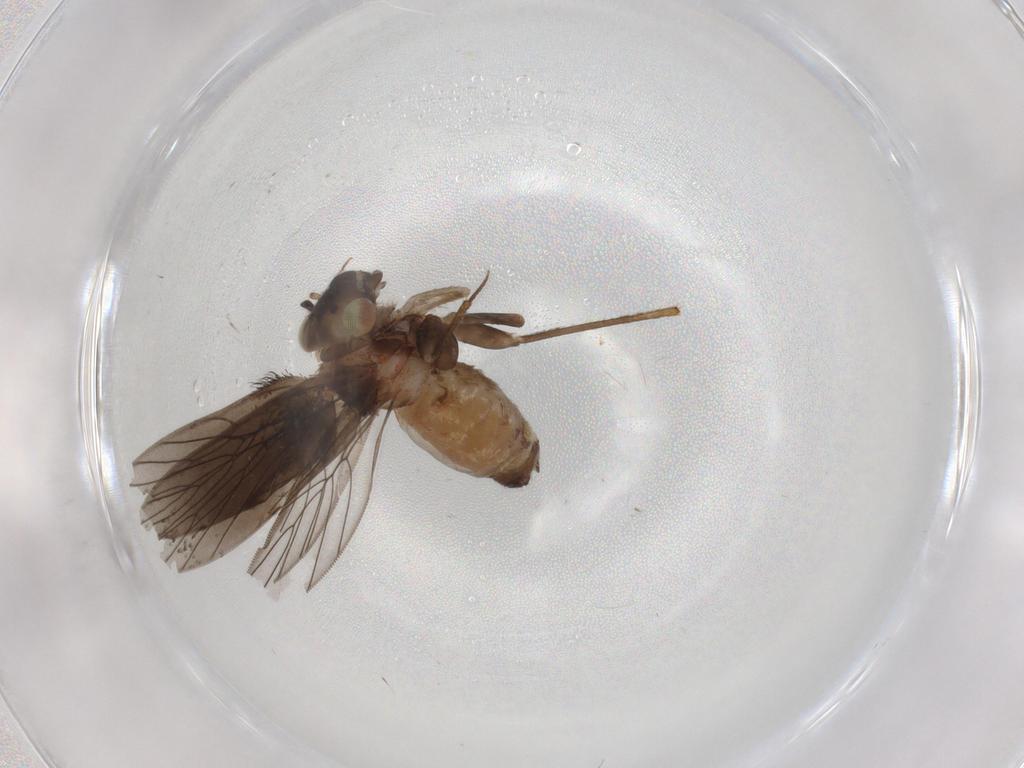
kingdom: Animalia
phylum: Arthropoda
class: Insecta
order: Psocodea
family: Lepidopsocidae
